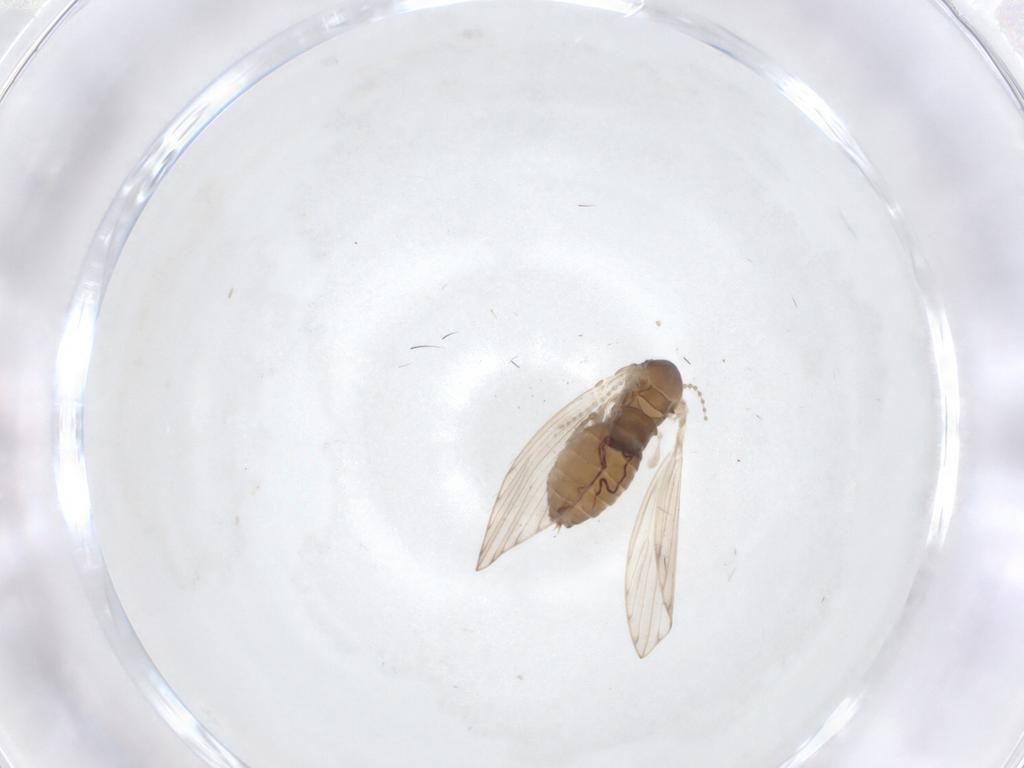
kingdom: Animalia
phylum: Arthropoda
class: Insecta
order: Diptera
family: Psychodidae
